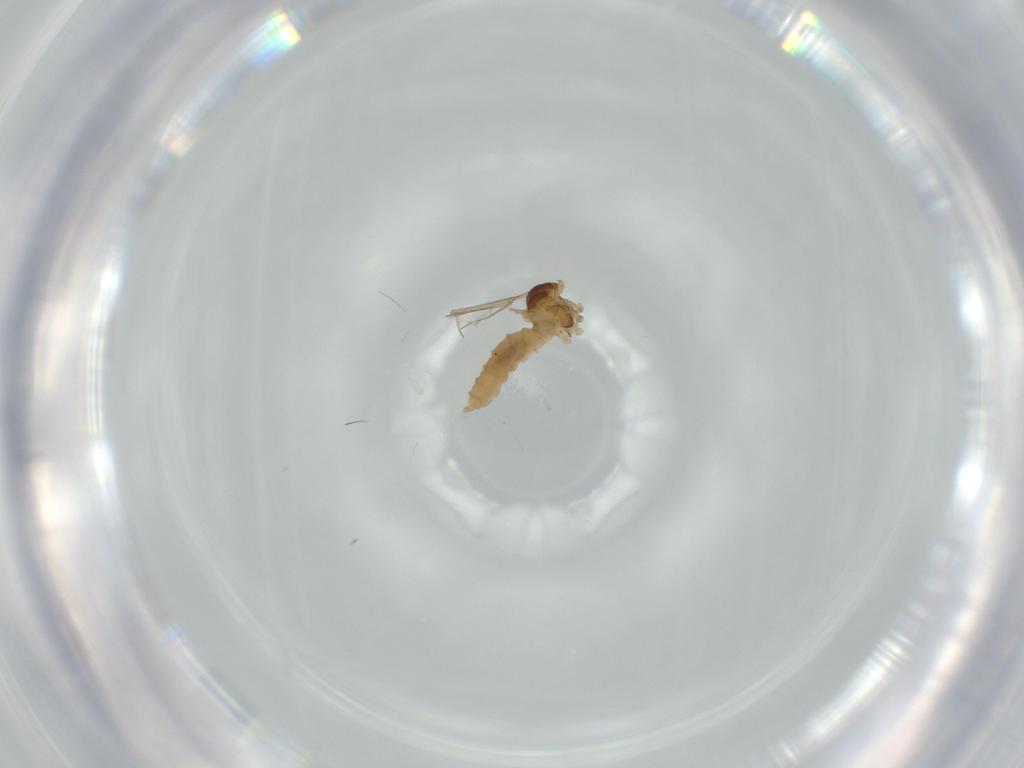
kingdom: Animalia
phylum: Arthropoda
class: Insecta
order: Diptera
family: Cecidomyiidae
